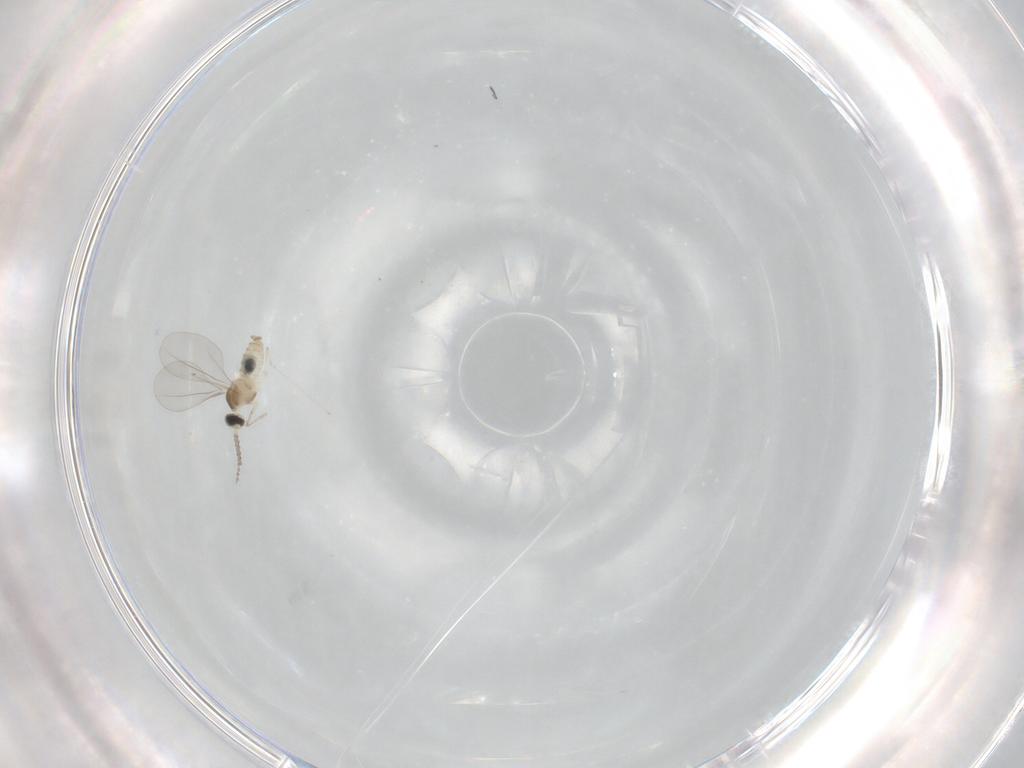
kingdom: Animalia
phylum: Arthropoda
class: Insecta
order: Diptera
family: Cecidomyiidae
